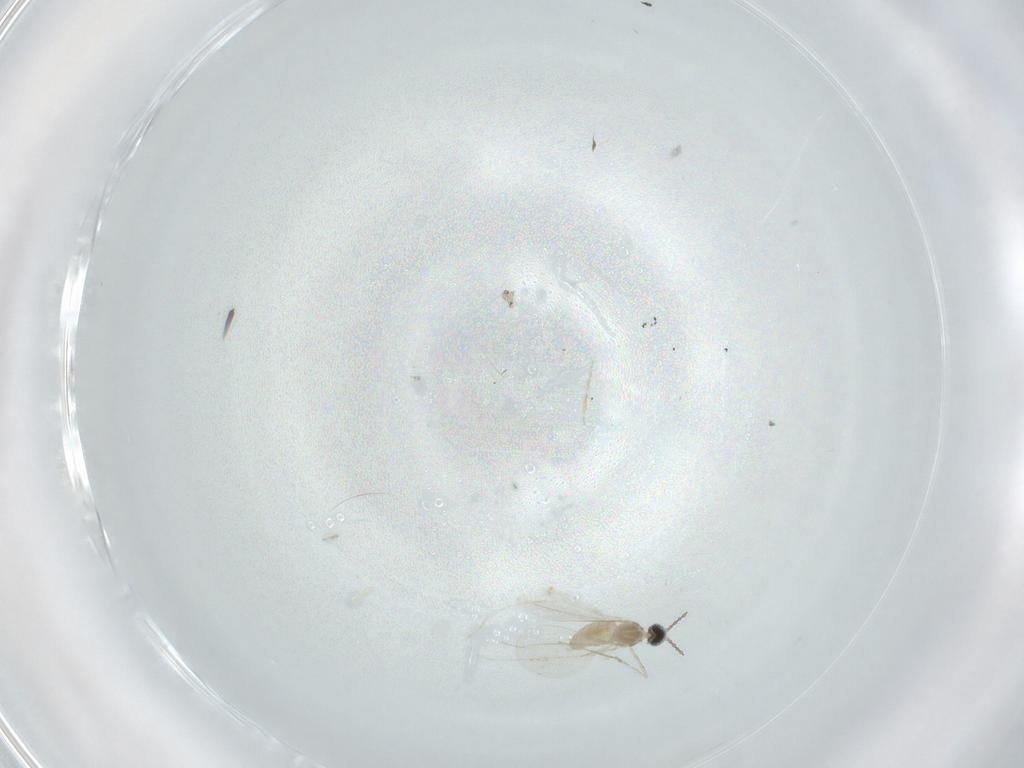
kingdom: Animalia
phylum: Arthropoda
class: Insecta
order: Diptera
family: Cecidomyiidae
